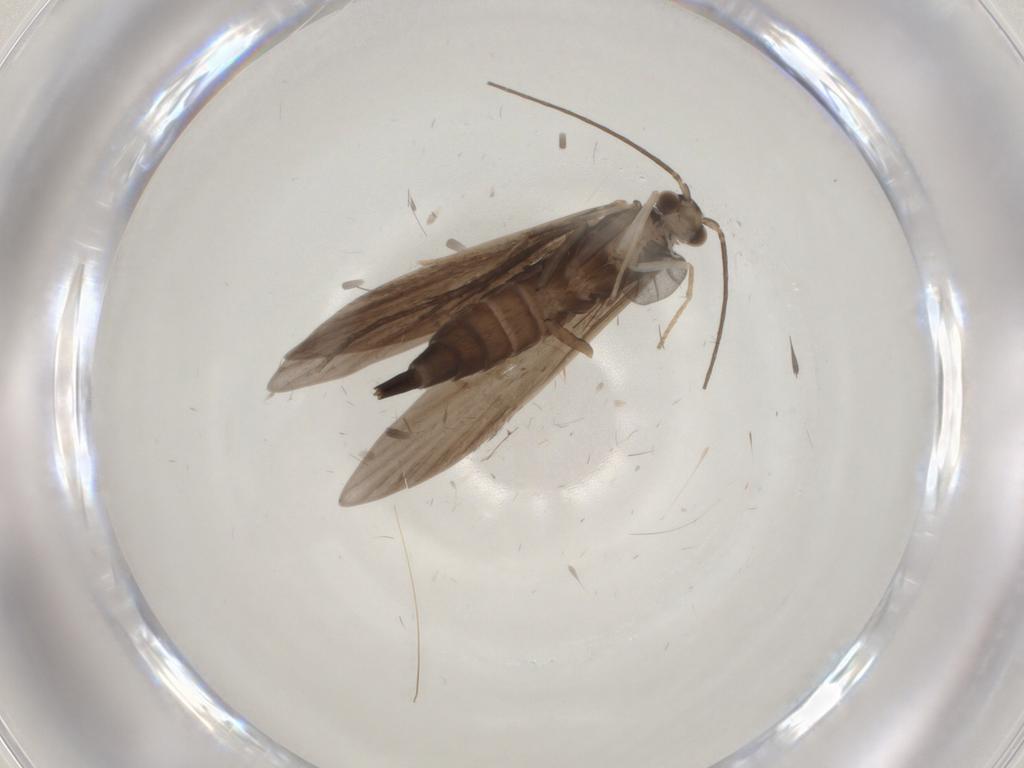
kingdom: Animalia
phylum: Arthropoda
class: Insecta
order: Trichoptera
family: Xiphocentronidae
